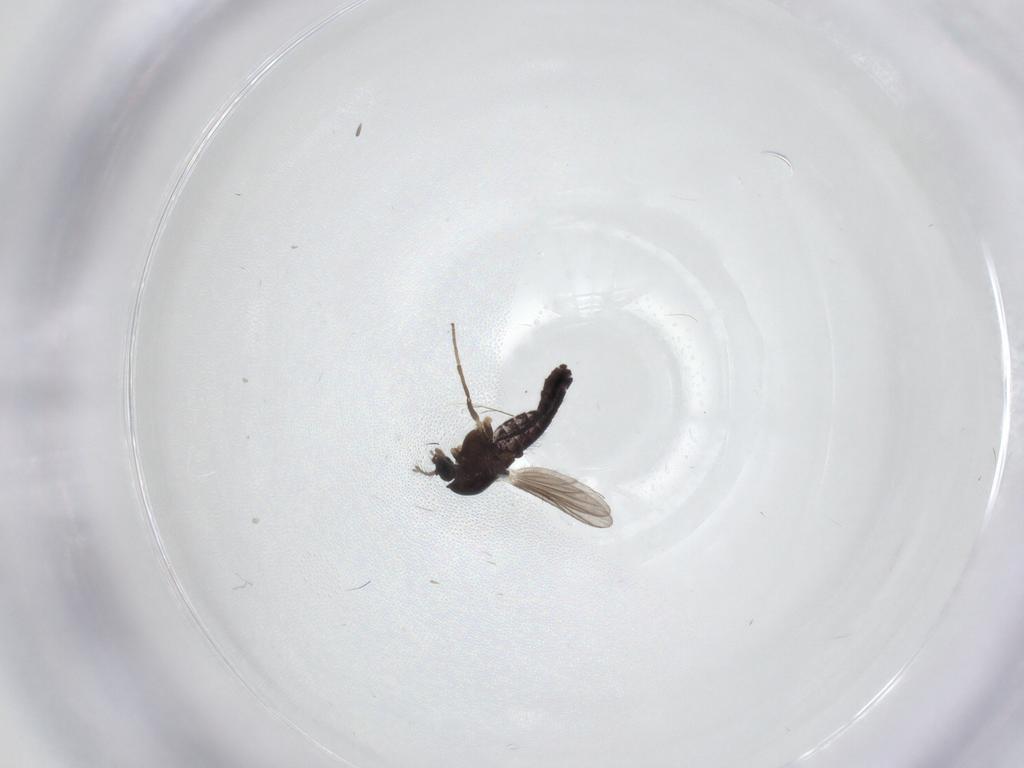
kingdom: Animalia
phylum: Arthropoda
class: Insecta
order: Diptera
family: Chironomidae
